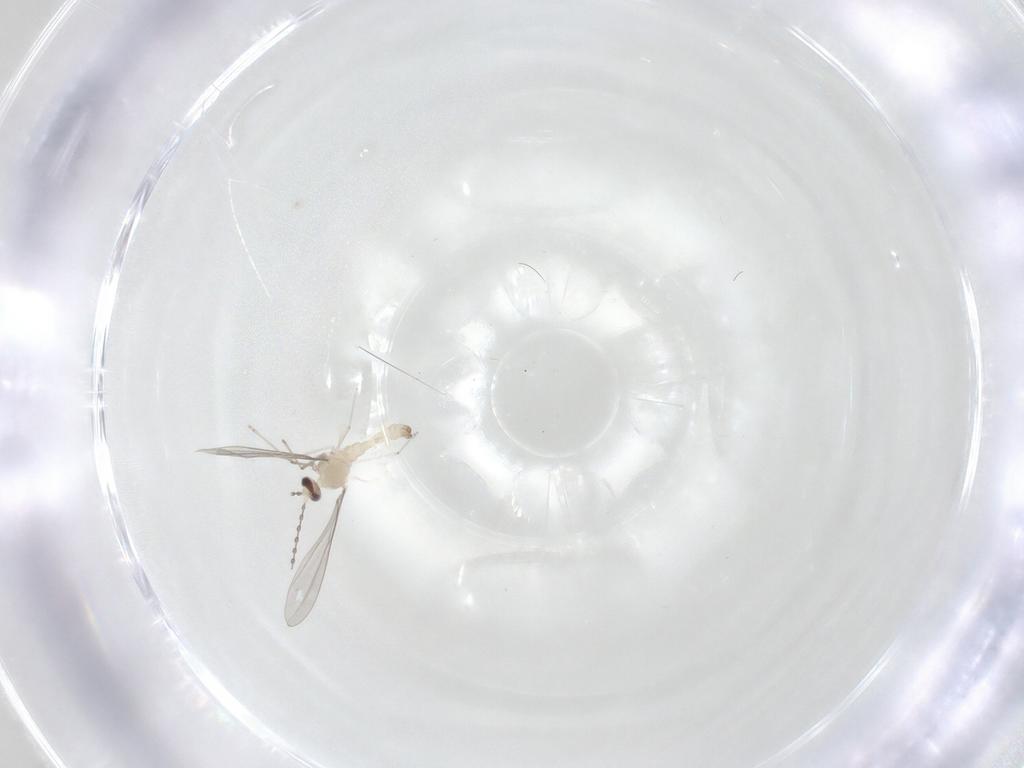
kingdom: Animalia
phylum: Arthropoda
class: Insecta
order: Diptera
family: Cecidomyiidae
